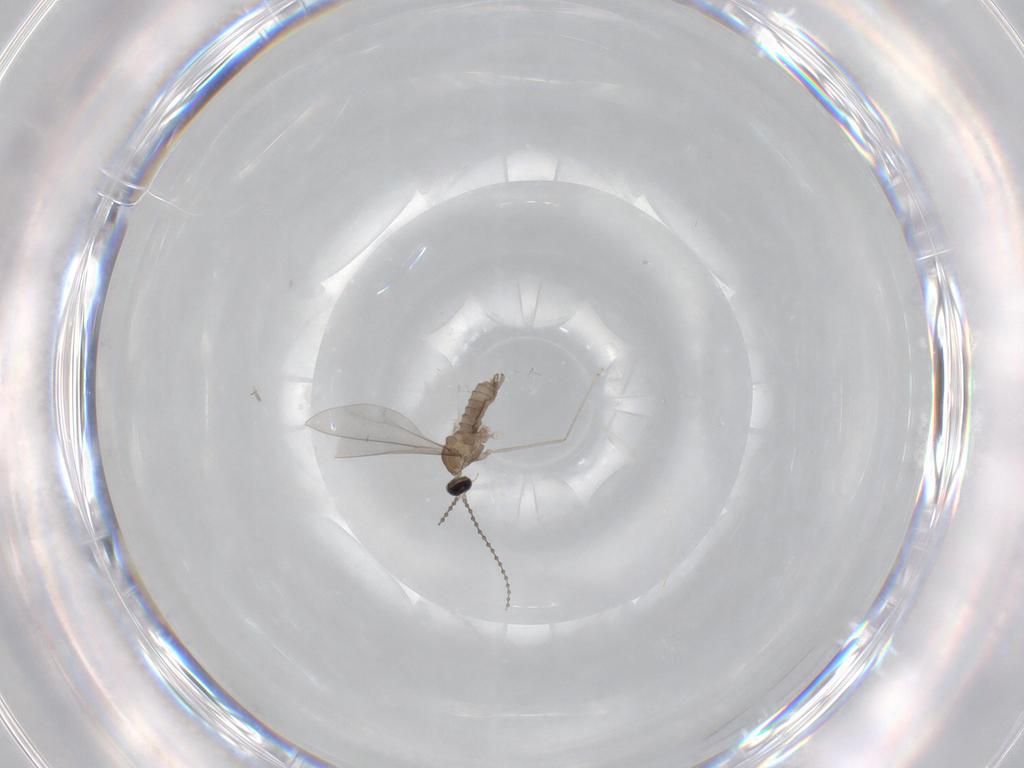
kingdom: Animalia
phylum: Arthropoda
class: Insecta
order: Diptera
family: Cecidomyiidae
